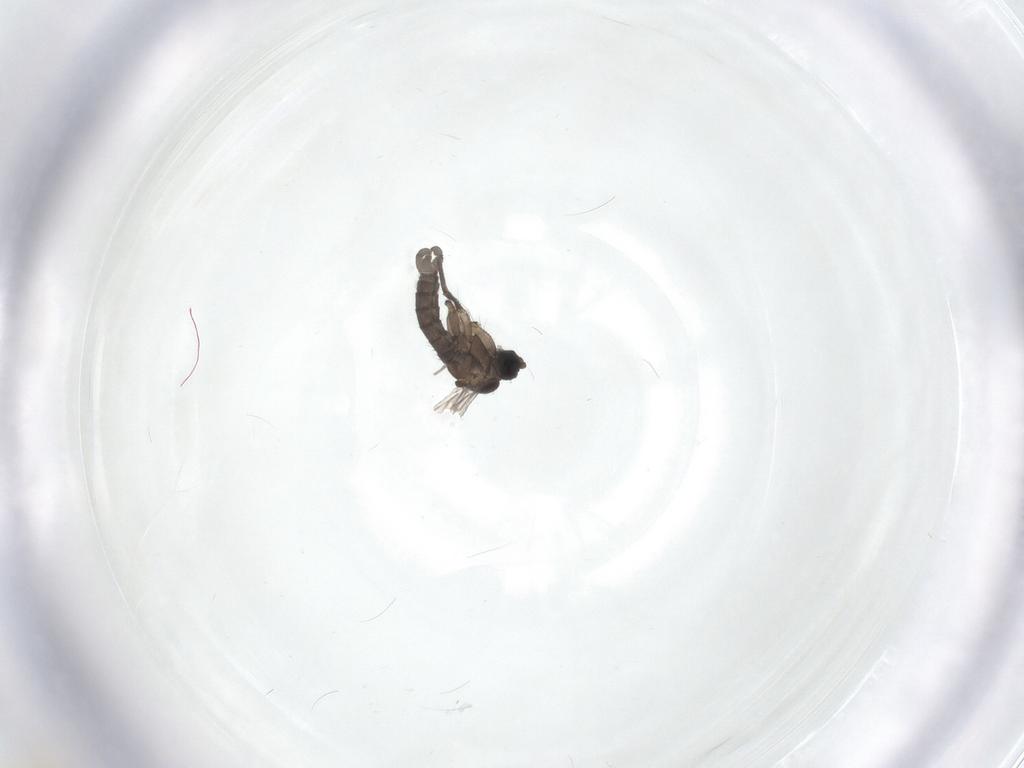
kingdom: Animalia
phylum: Arthropoda
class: Insecta
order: Diptera
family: Sciaridae
